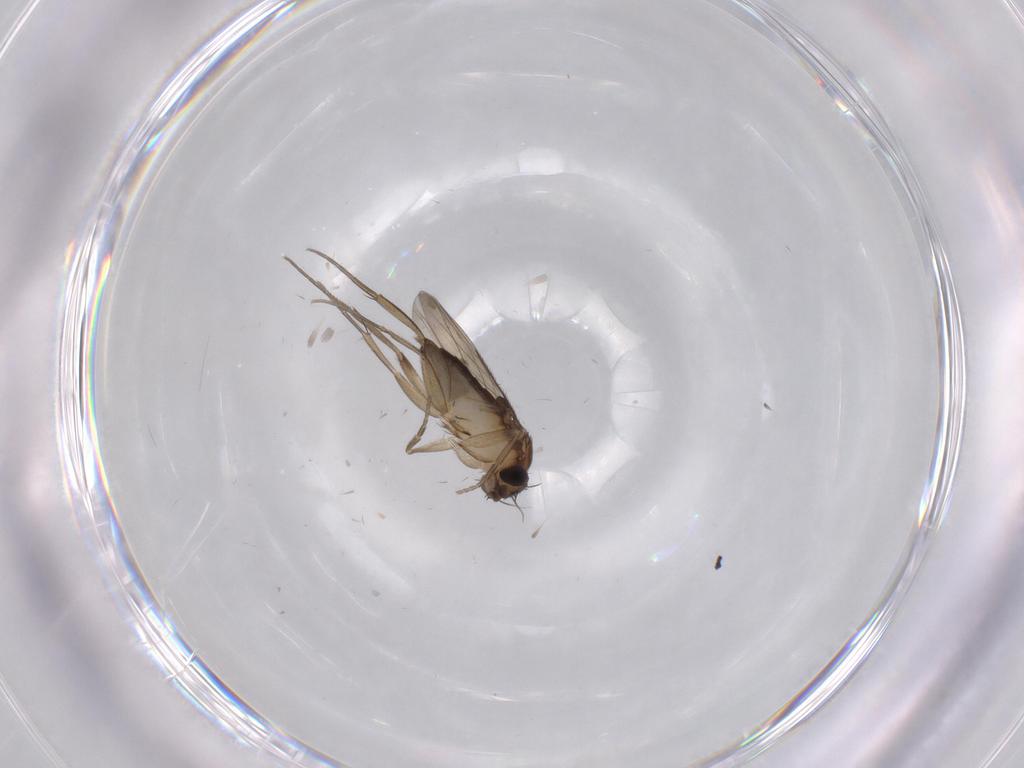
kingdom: Animalia
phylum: Arthropoda
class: Insecta
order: Diptera
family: Phoridae
